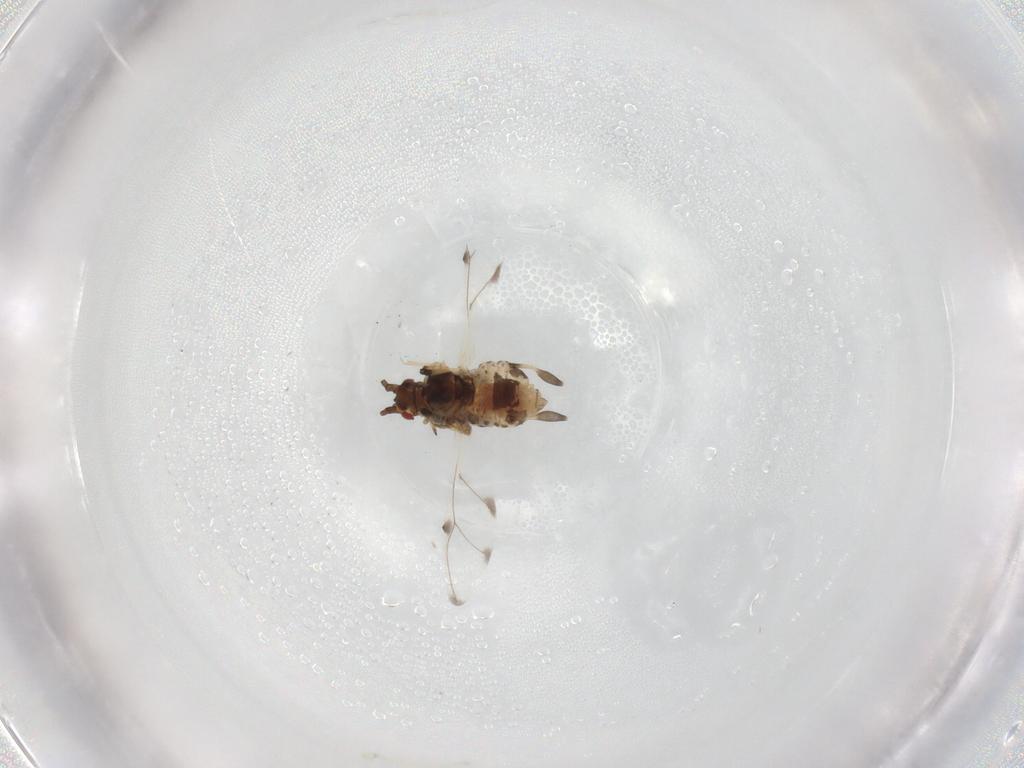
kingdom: Animalia
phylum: Arthropoda
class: Insecta
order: Hemiptera
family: Aphididae
